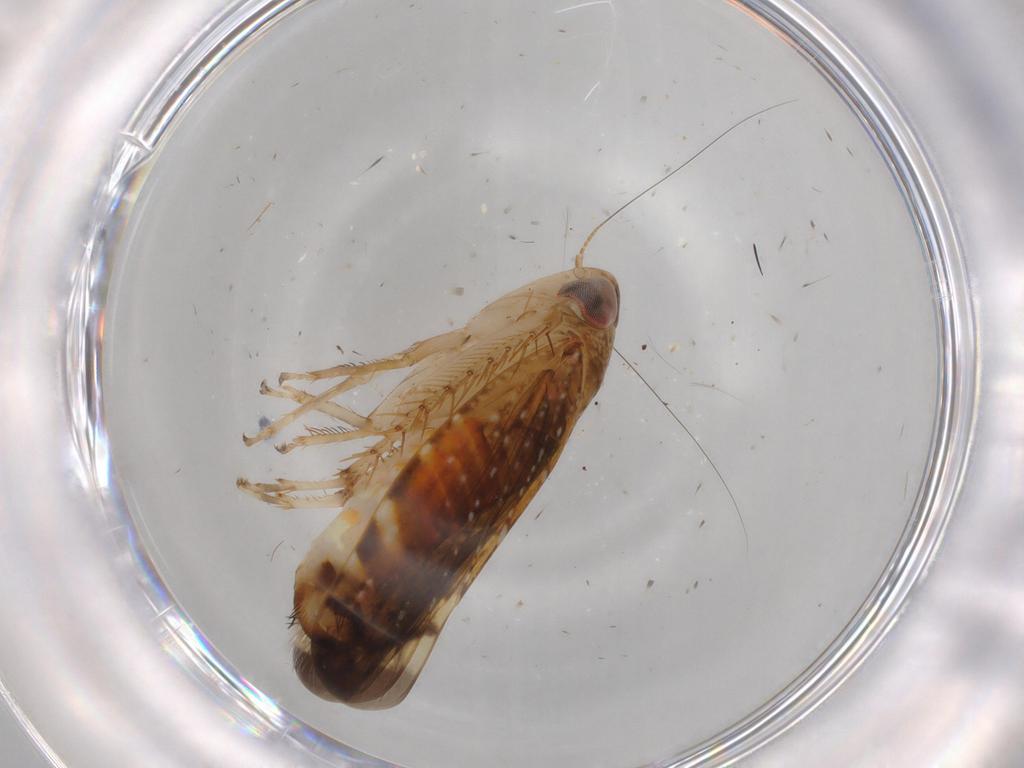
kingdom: Animalia
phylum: Arthropoda
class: Insecta
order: Hemiptera
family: Cicadellidae
